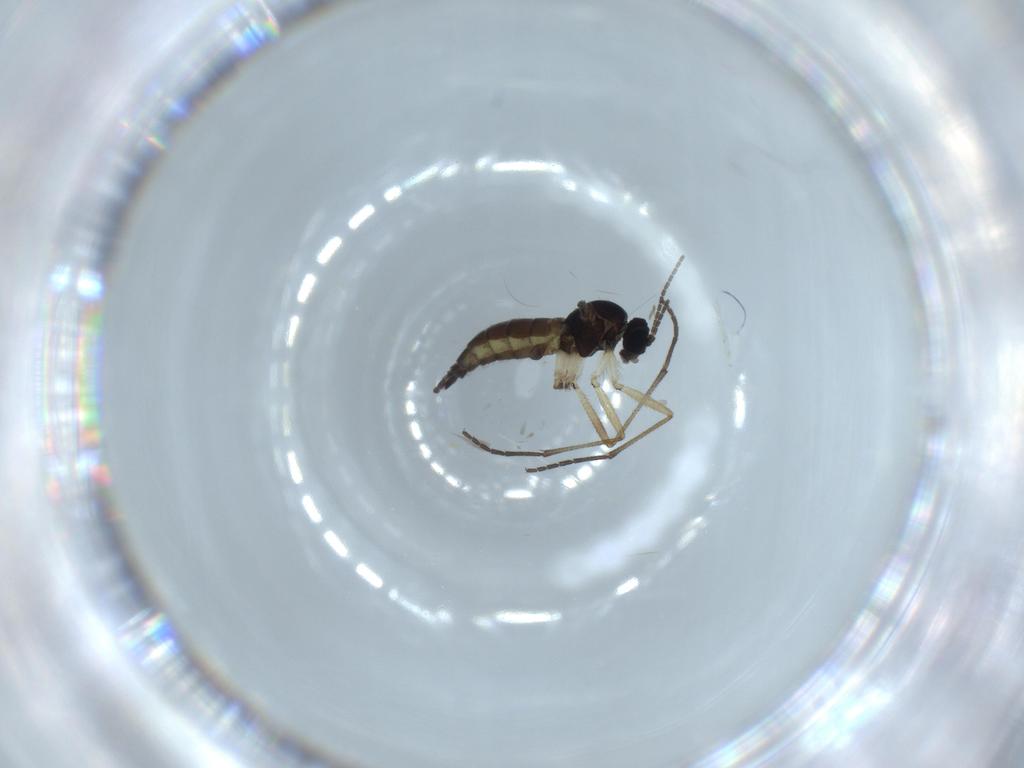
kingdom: Animalia
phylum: Arthropoda
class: Insecta
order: Diptera
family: Sciaridae
